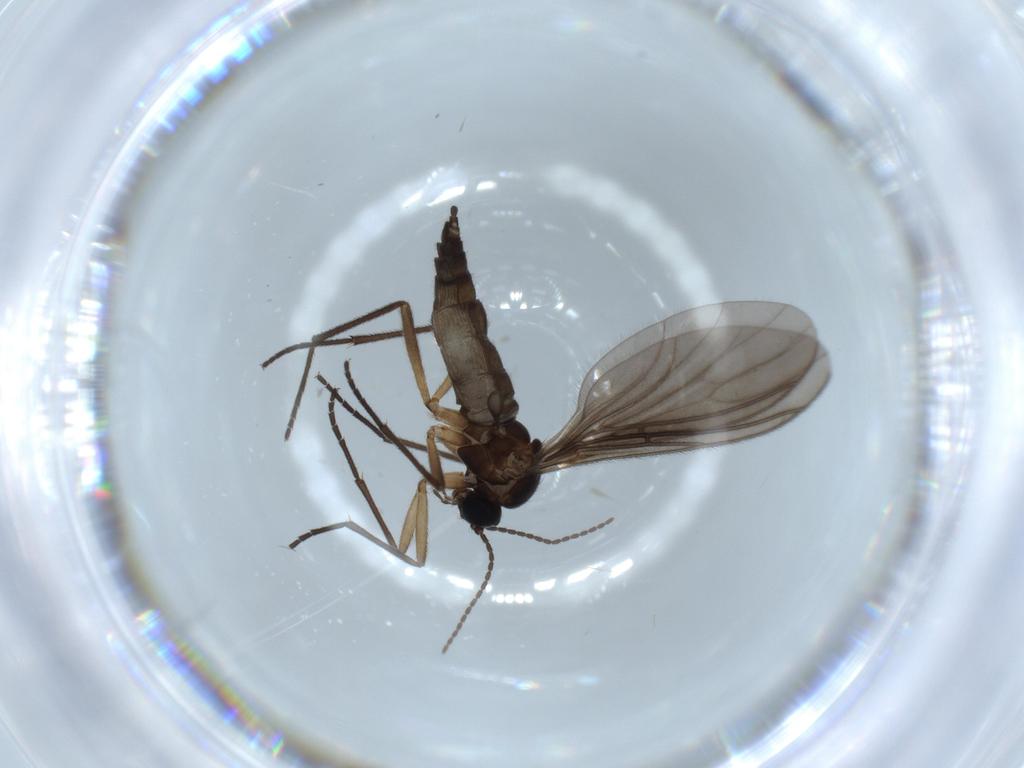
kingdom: Animalia
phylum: Arthropoda
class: Insecta
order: Diptera
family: Sciaridae
